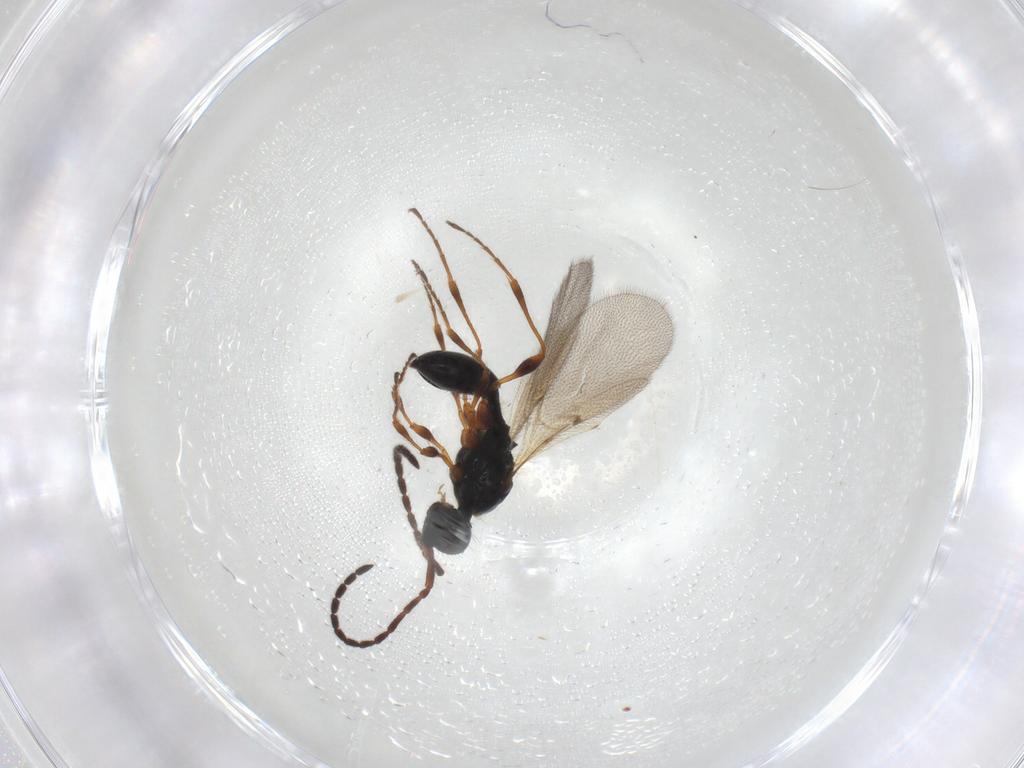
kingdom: Animalia
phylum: Arthropoda
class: Insecta
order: Hymenoptera
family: Diapriidae
